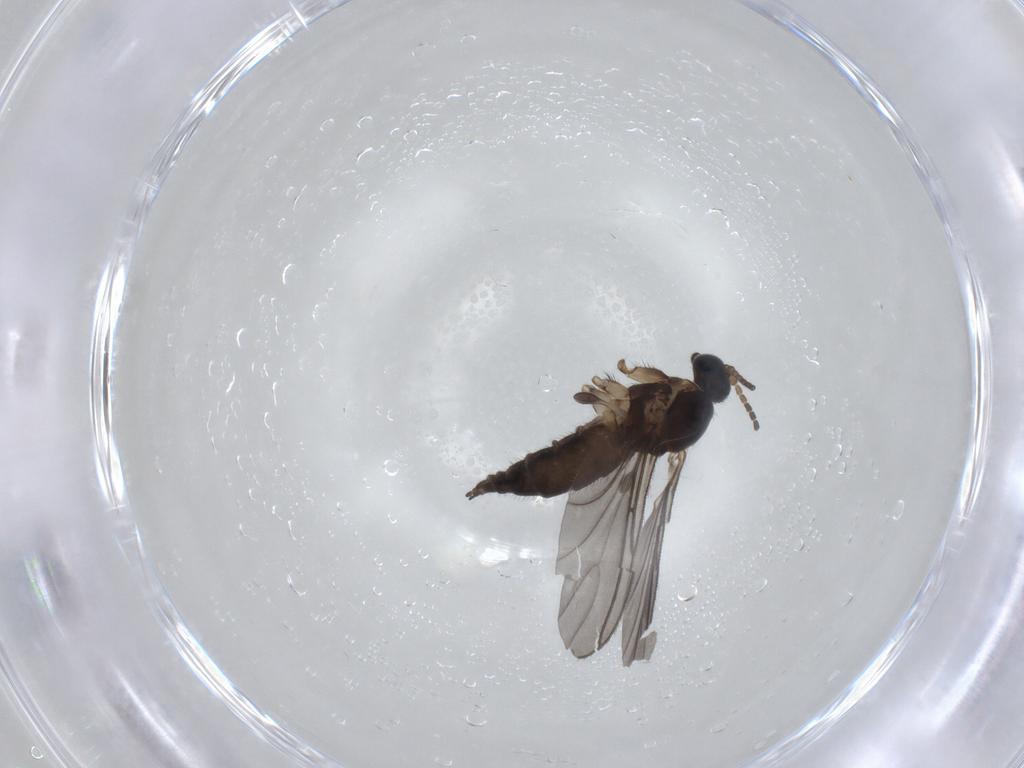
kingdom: Animalia
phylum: Arthropoda
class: Insecta
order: Diptera
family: Sciaridae
